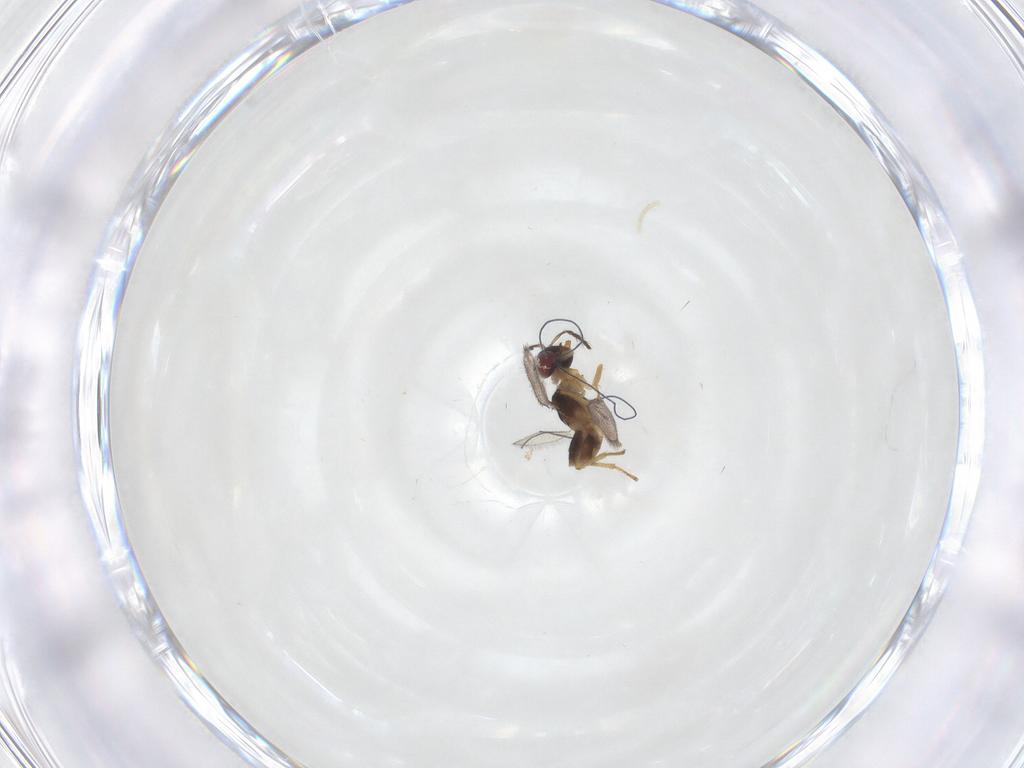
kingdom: Animalia
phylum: Arthropoda
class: Insecta
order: Hymenoptera
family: Eulophidae
